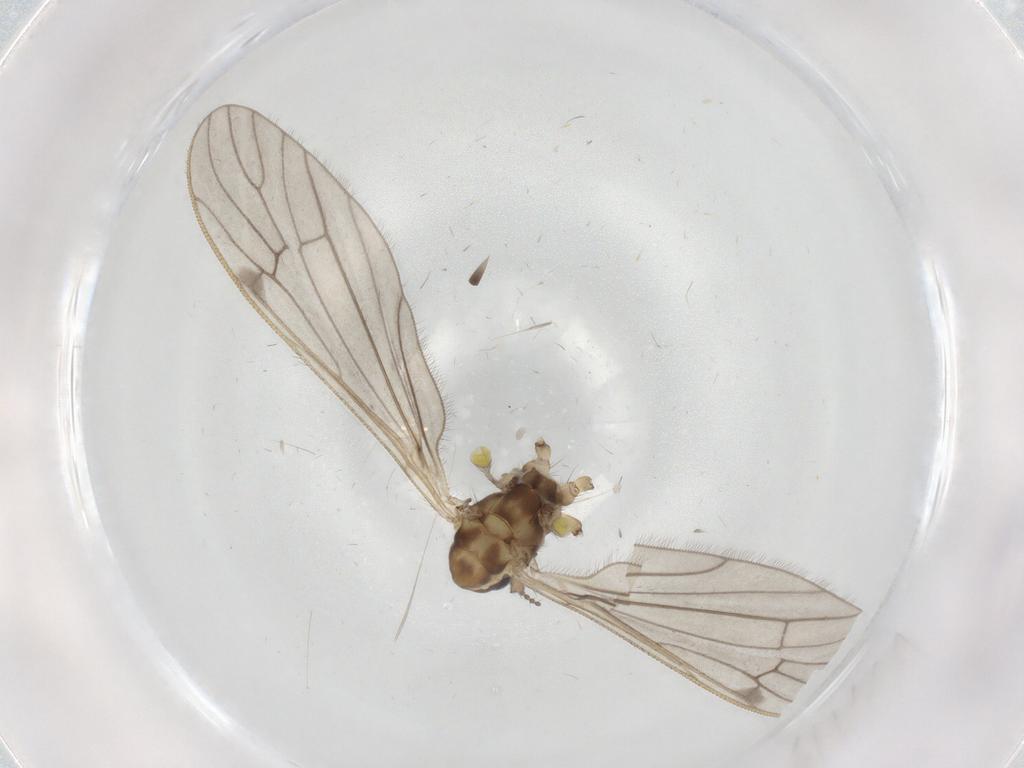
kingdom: Animalia
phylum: Arthropoda
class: Insecta
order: Diptera
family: Limoniidae
